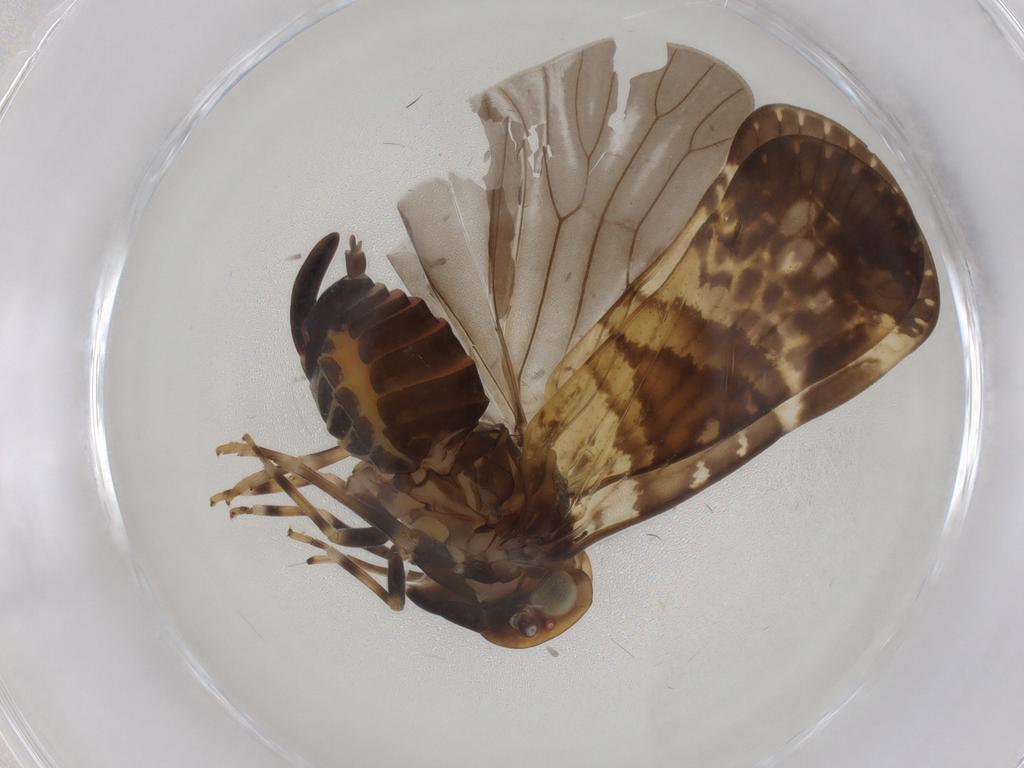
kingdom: Animalia
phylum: Arthropoda
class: Insecta
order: Hemiptera
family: Cixiidae
